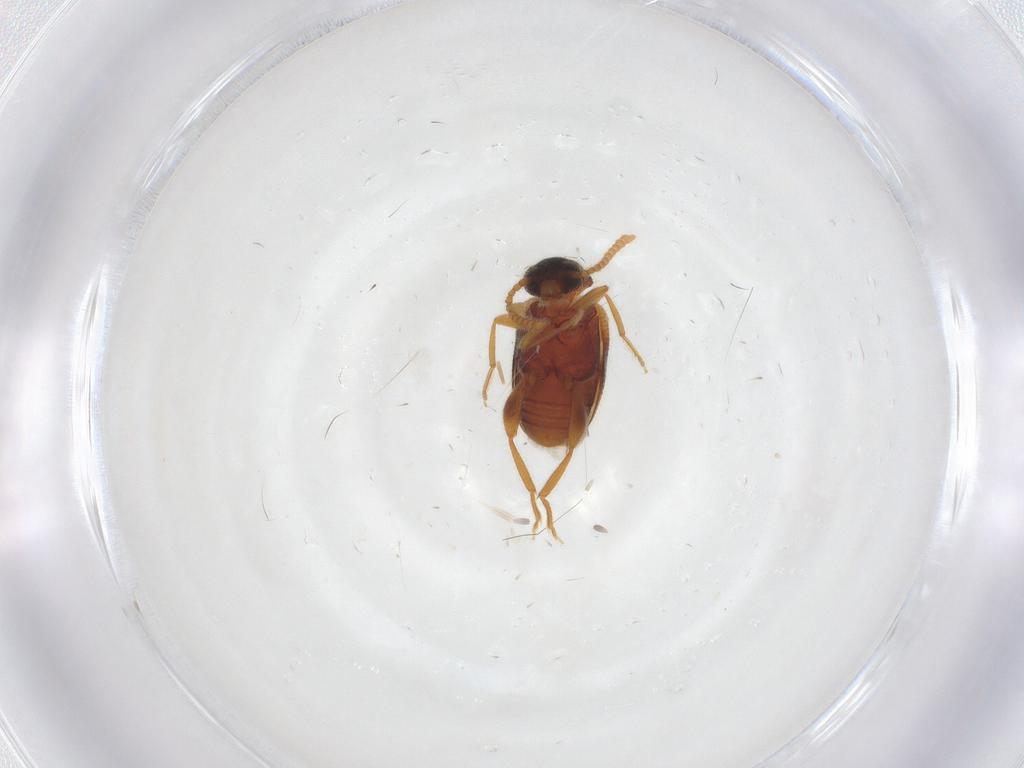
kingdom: Animalia
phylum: Arthropoda
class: Insecta
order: Coleoptera
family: Aderidae
